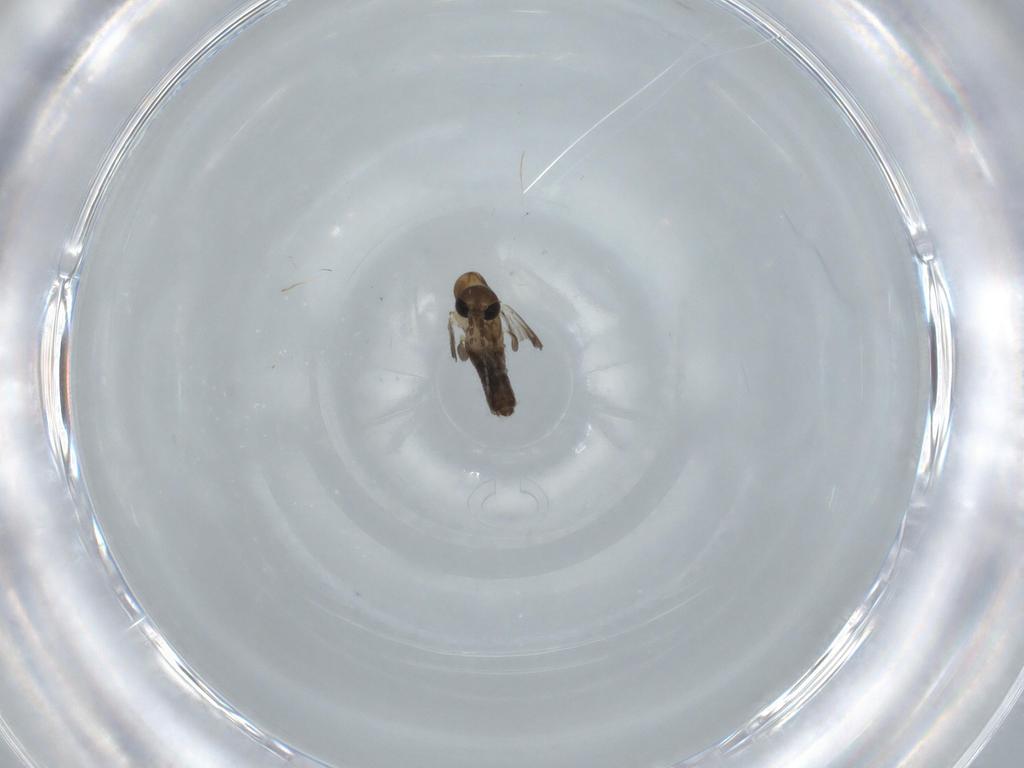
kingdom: Animalia
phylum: Arthropoda
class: Insecta
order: Diptera
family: Psychodidae
